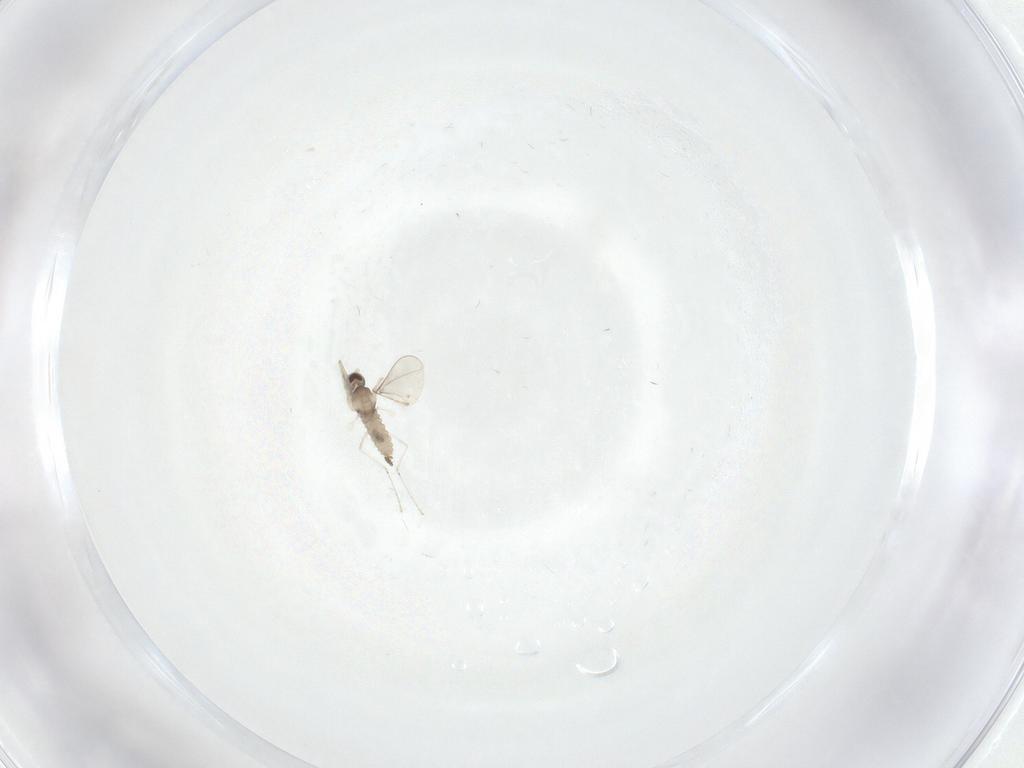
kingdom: Animalia
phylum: Arthropoda
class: Insecta
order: Diptera
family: Cecidomyiidae
